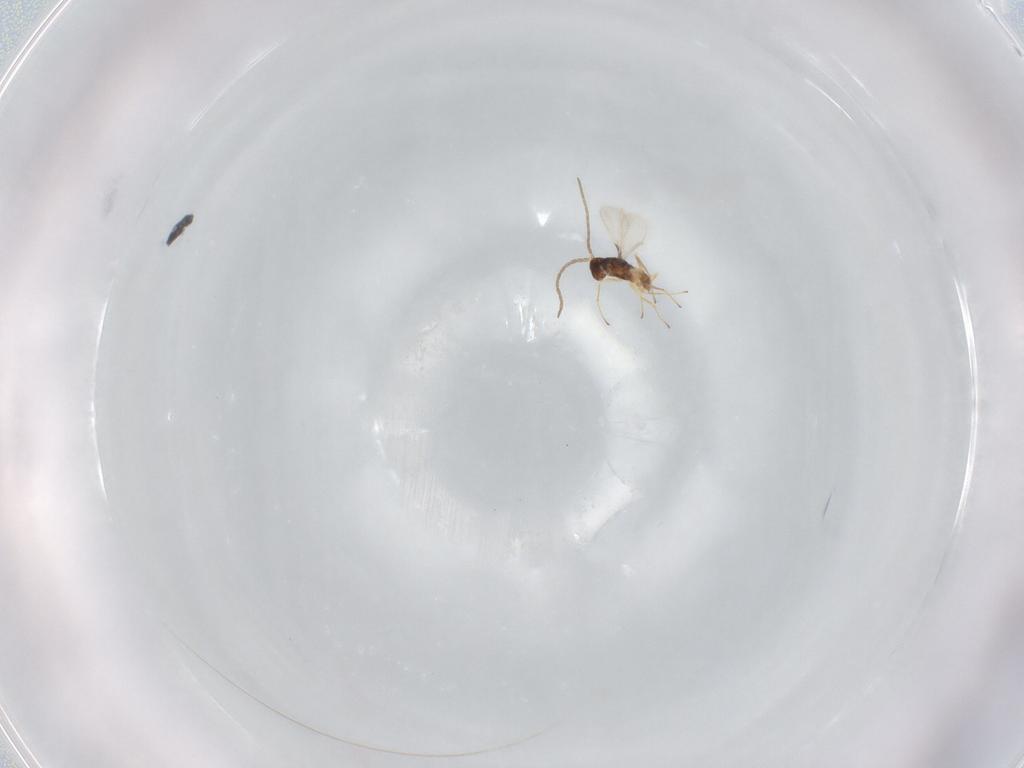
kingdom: Animalia
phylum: Arthropoda
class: Insecta
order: Hymenoptera
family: Mymaridae
